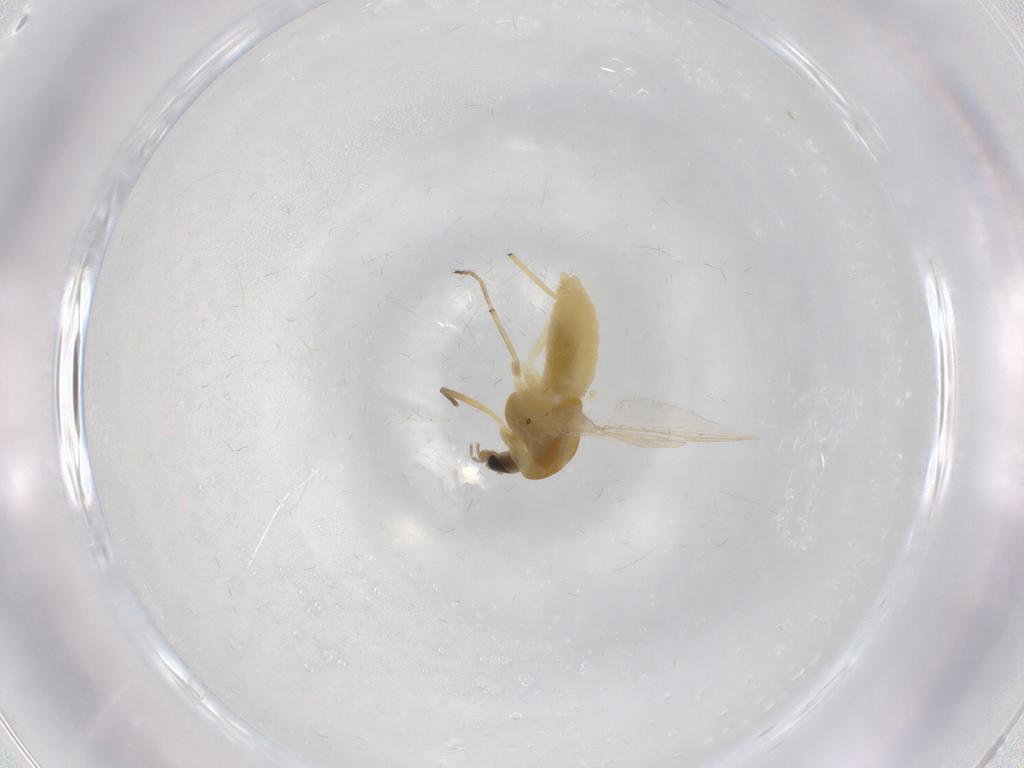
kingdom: Animalia
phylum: Arthropoda
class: Insecta
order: Diptera
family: Chironomidae
